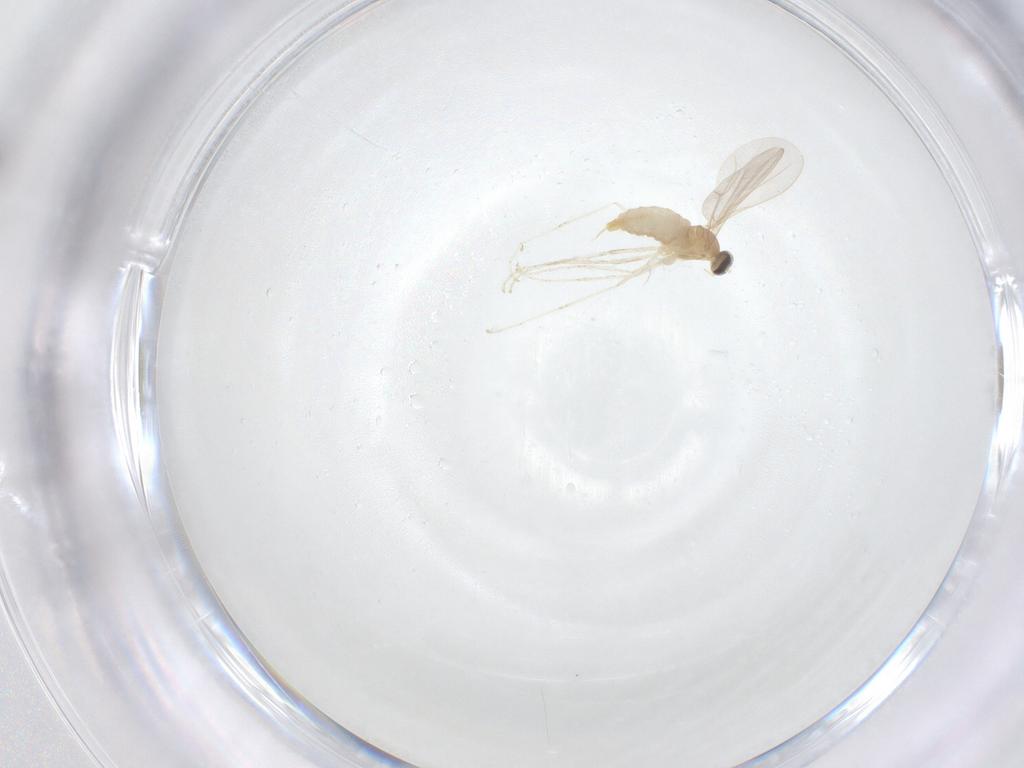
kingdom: Animalia
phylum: Arthropoda
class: Insecta
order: Diptera
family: Cecidomyiidae
